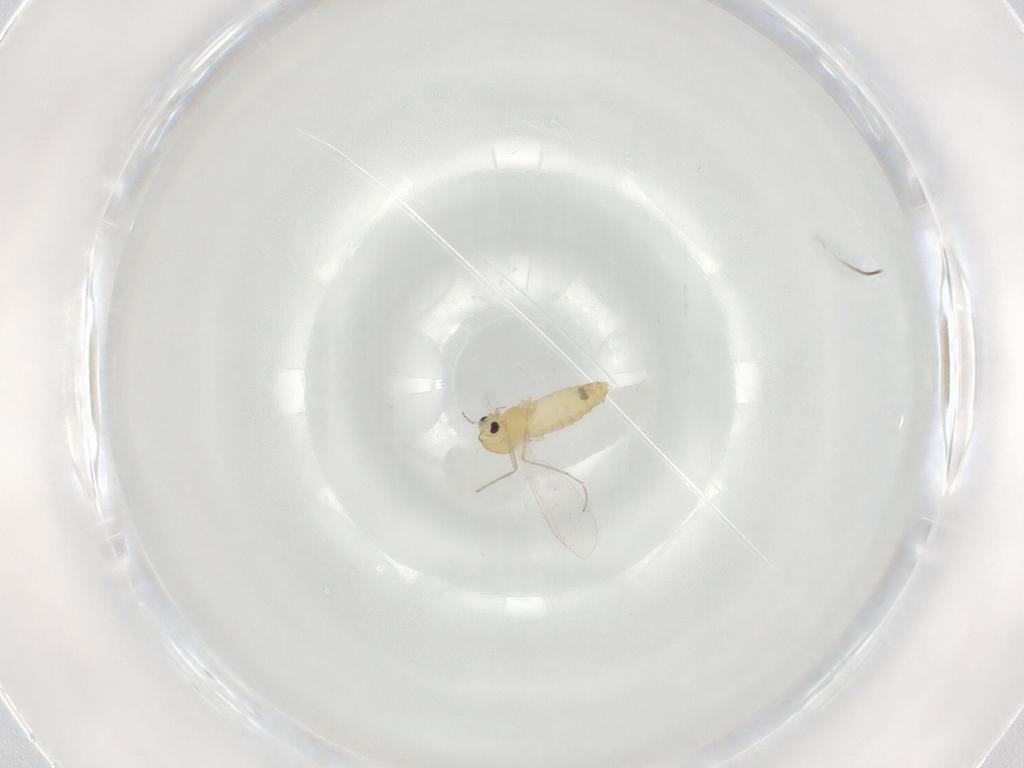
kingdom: Animalia
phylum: Arthropoda
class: Insecta
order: Diptera
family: Chironomidae
